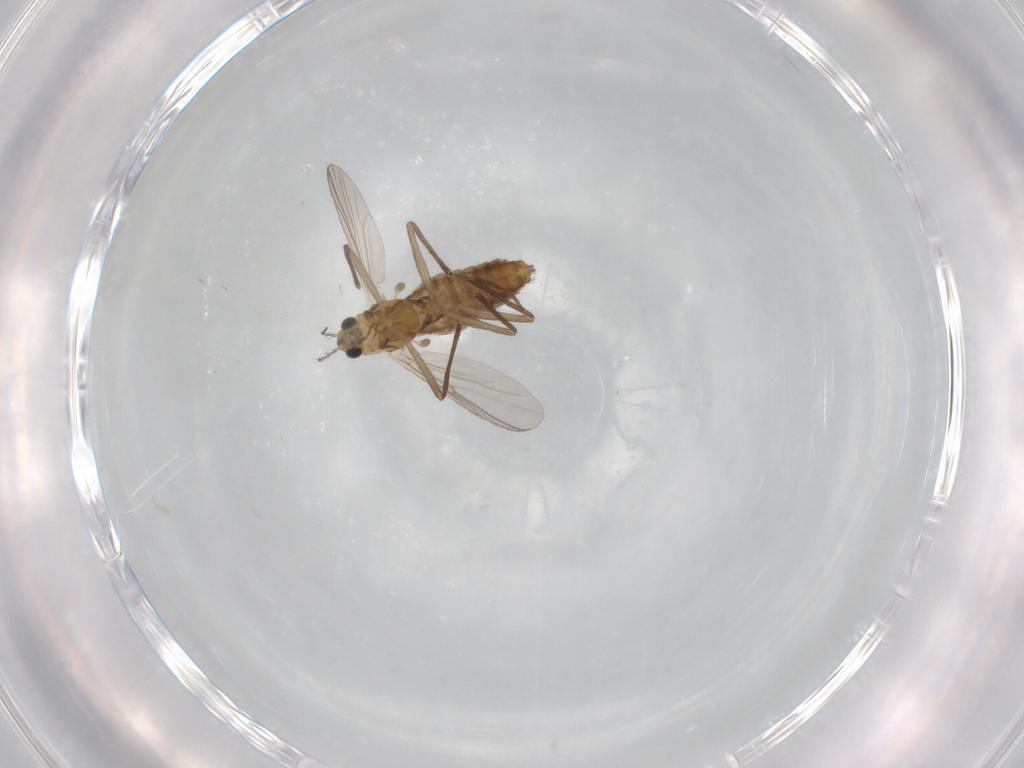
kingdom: Animalia
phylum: Arthropoda
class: Insecta
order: Diptera
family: Chironomidae
